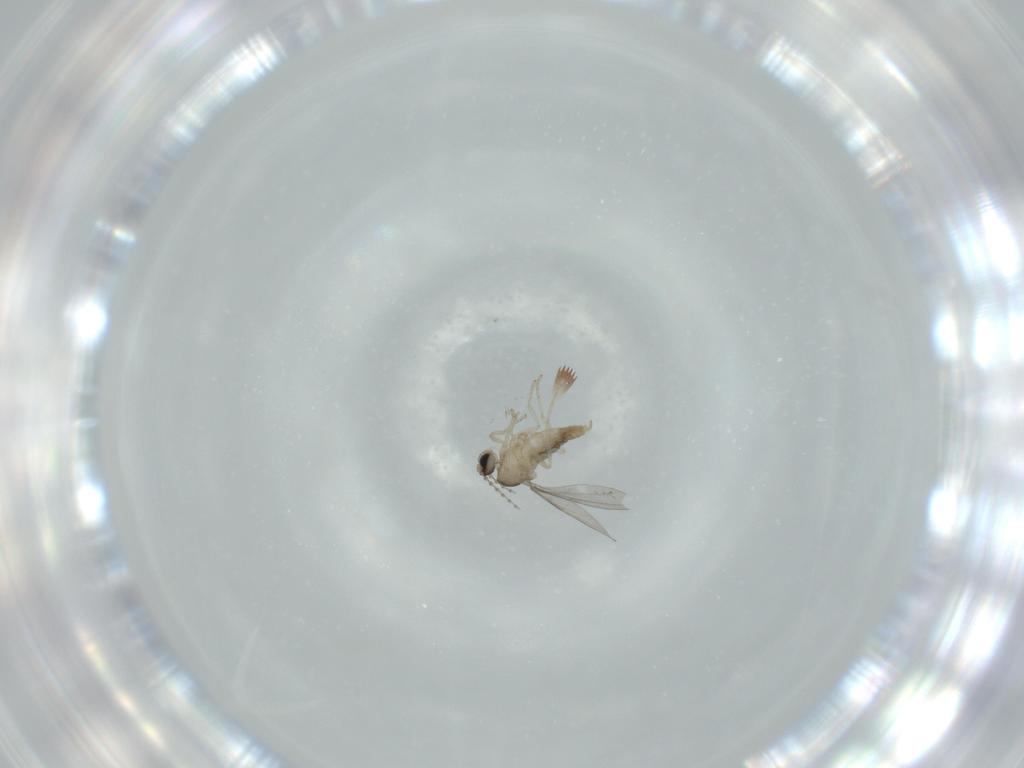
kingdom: Animalia
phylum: Arthropoda
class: Insecta
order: Diptera
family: Cecidomyiidae
